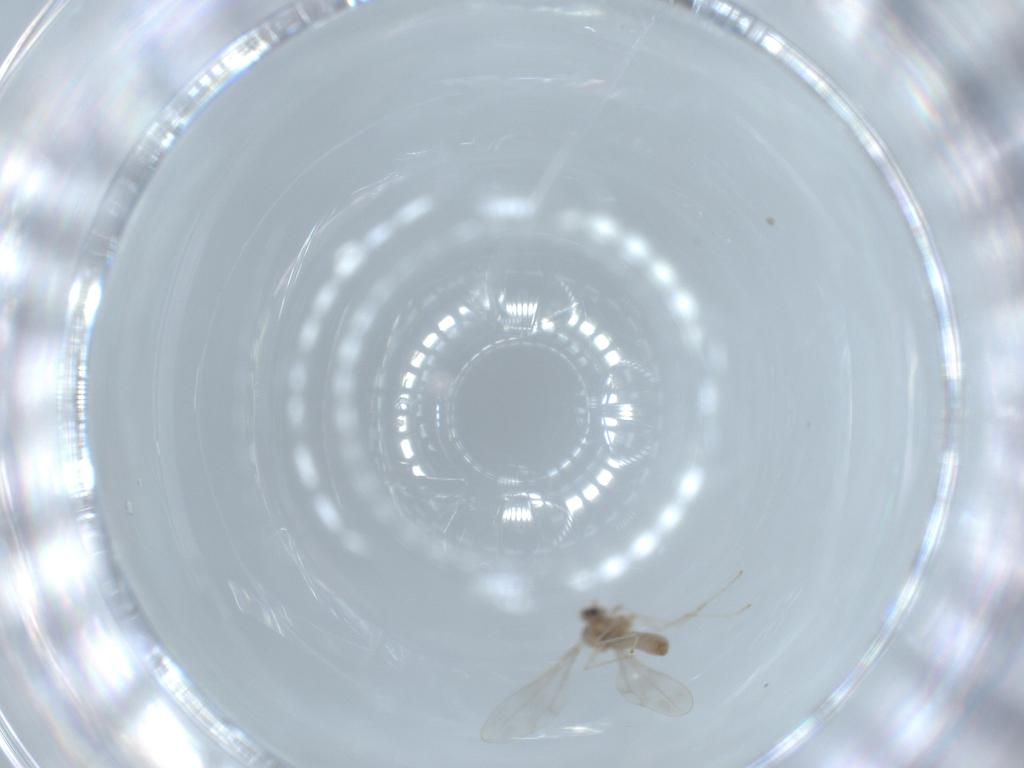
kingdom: Animalia
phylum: Arthropoda
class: Insecta
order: Diptera
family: Cecidomyiidae
